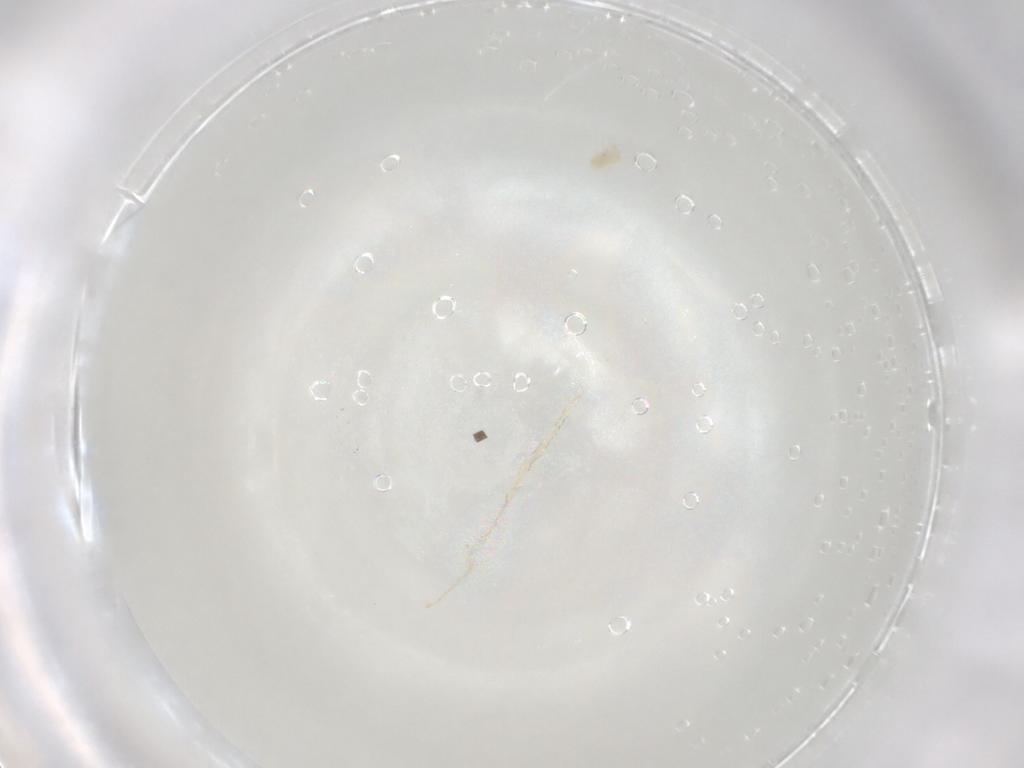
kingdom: Animalia
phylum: Arthropoda
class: Arachnida
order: Trombidiformes
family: Eupodidae
